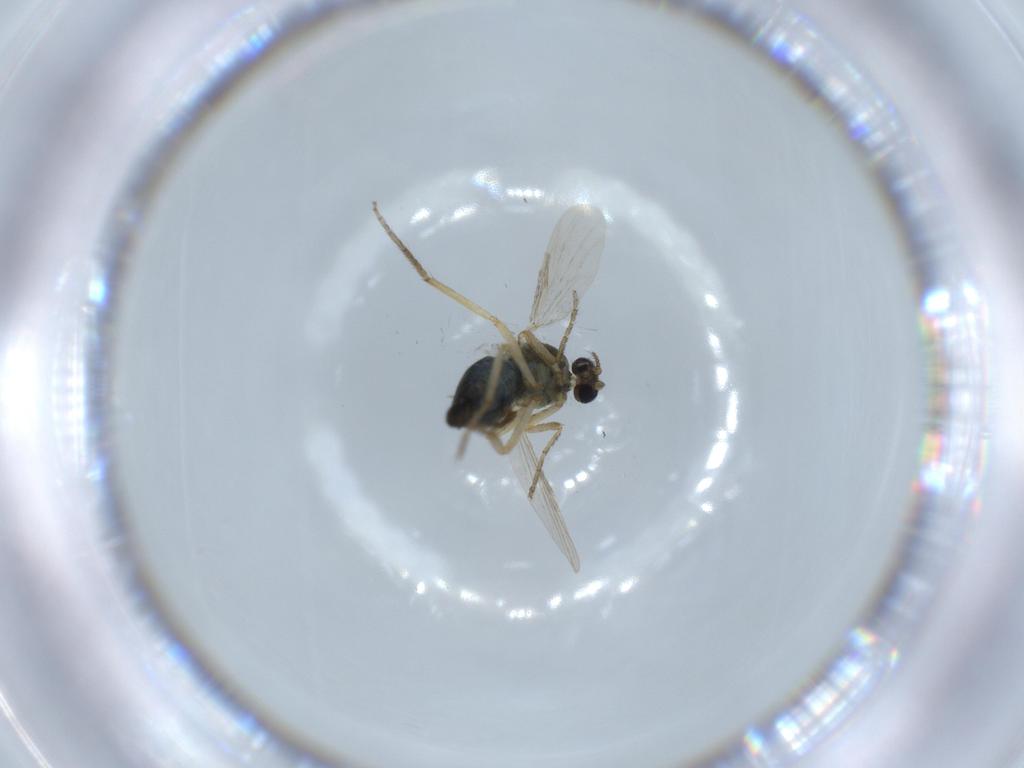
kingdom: Animalia
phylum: Arthropoda
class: Insecta
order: Diptera
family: Ceratopogonidae
